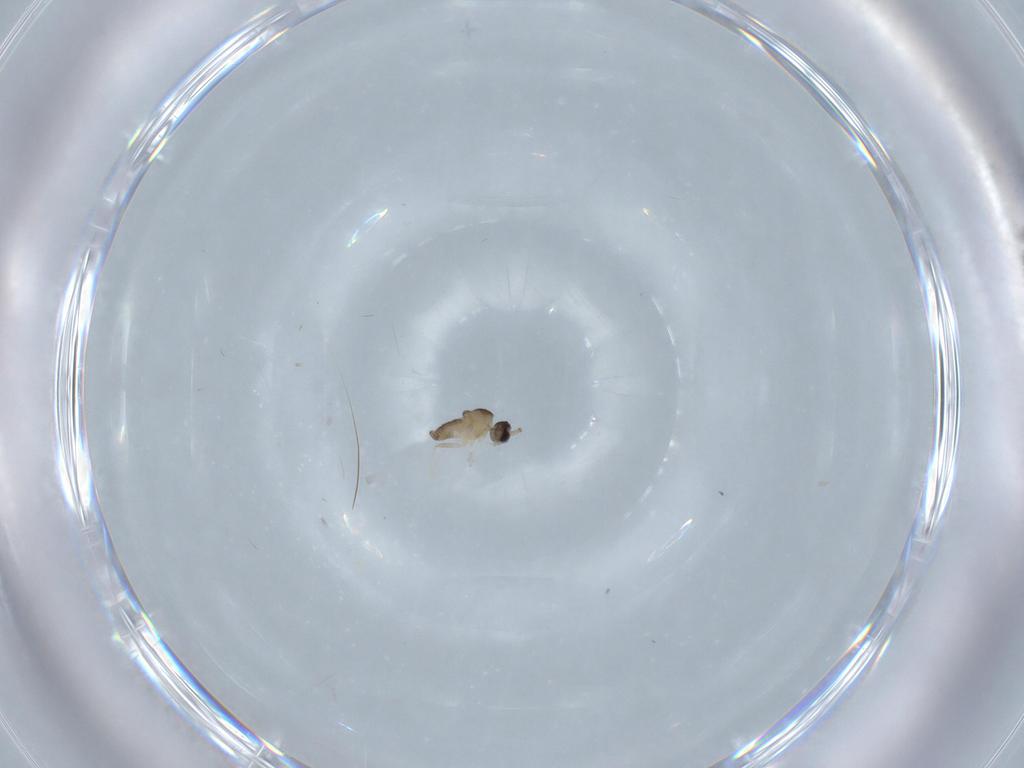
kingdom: Animalia
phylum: Arthropoda
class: Insecta
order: Diptera
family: Cecidomyiidae
